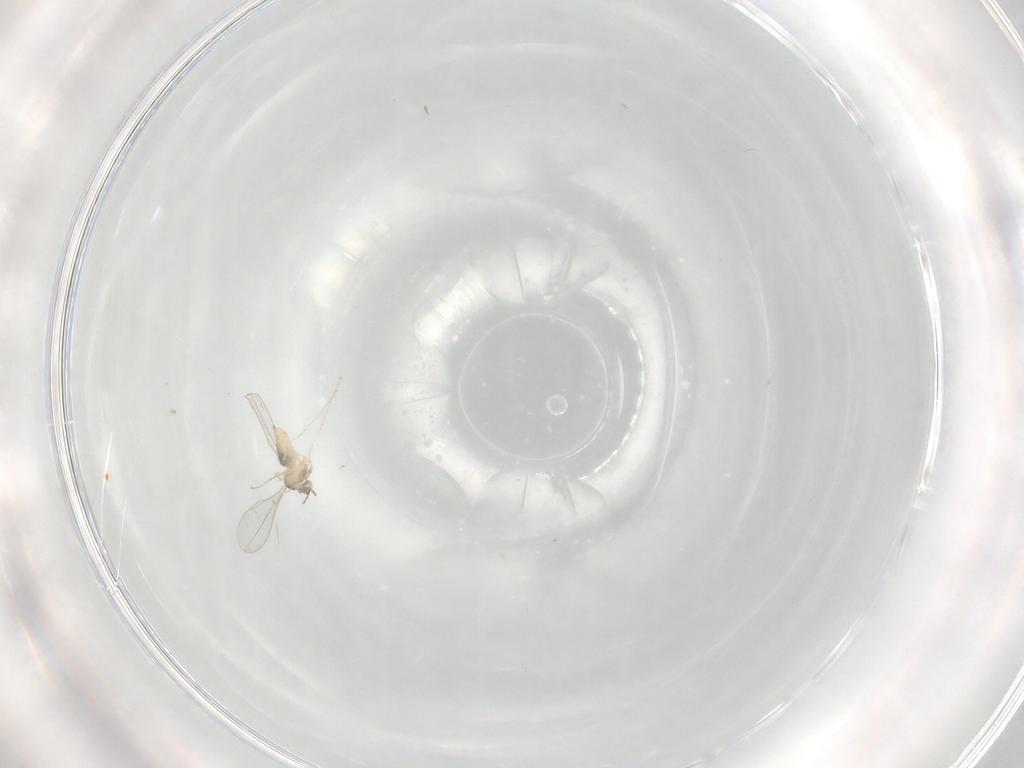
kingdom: Animalia
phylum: Arthropoda
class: Insecta
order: Diptera
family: Cecidomyiidae
